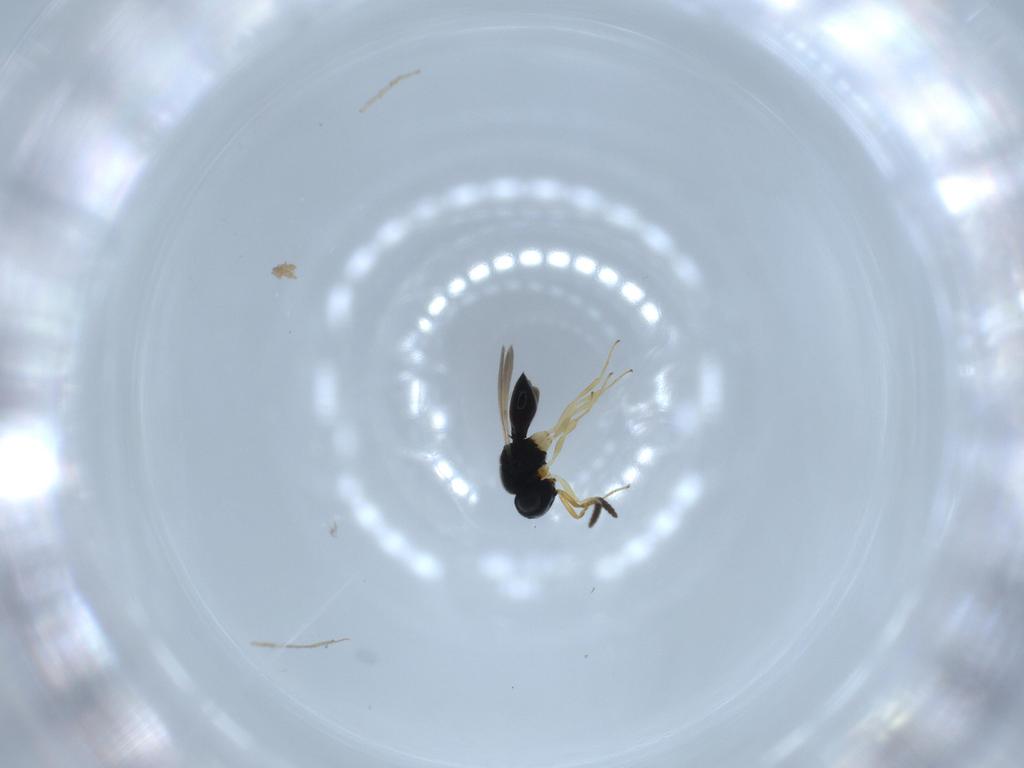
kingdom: Animalia
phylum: Arthropoda
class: Insecta
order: Hymenoptera
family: Scelionidae
